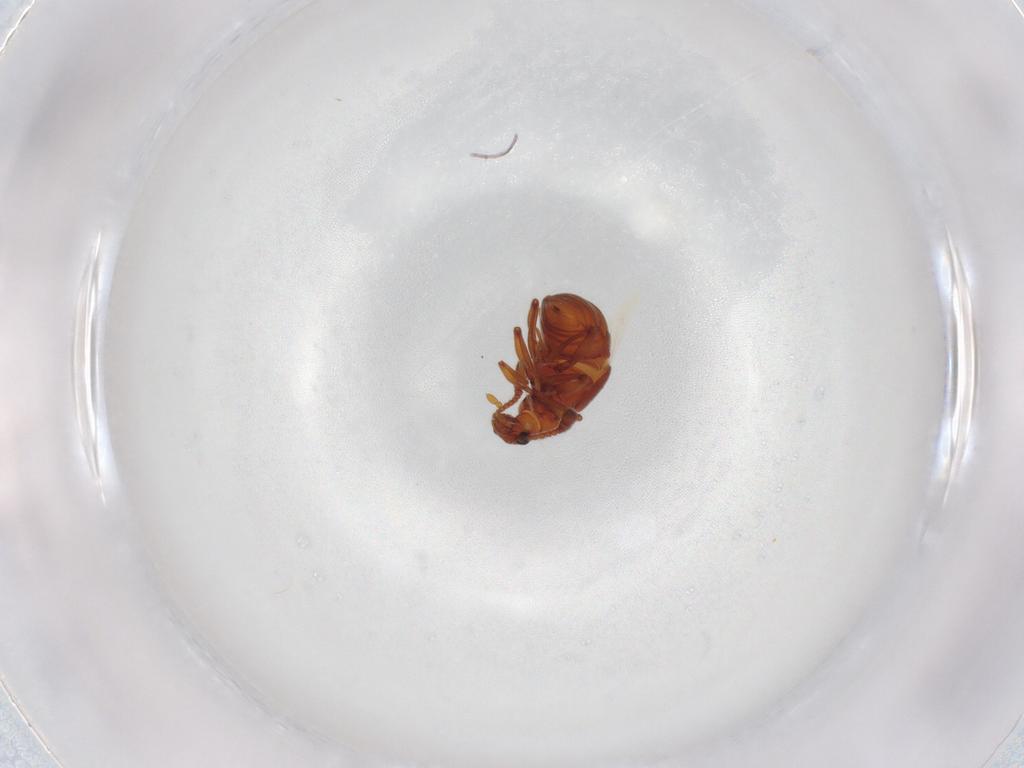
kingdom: Animalia
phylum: Arthropoda
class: Insecta
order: Coleoptera
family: Staphylinidae
